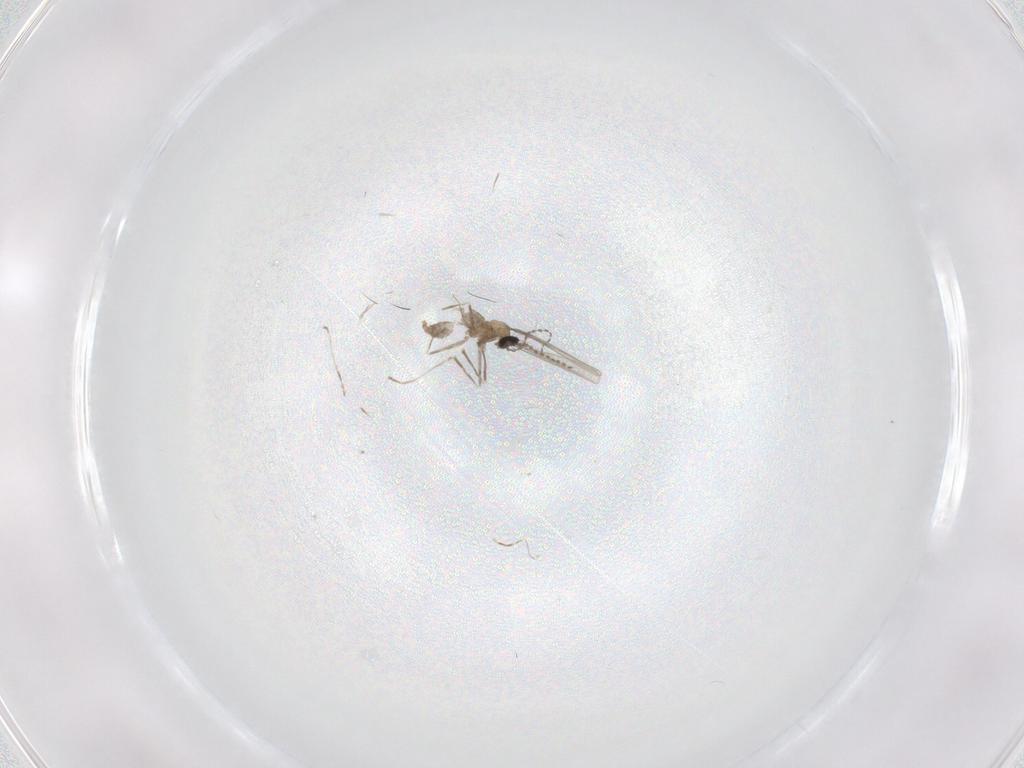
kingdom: Animalia
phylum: Arthropoda
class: Insecta
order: Diptera
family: Cecidomyiidae
